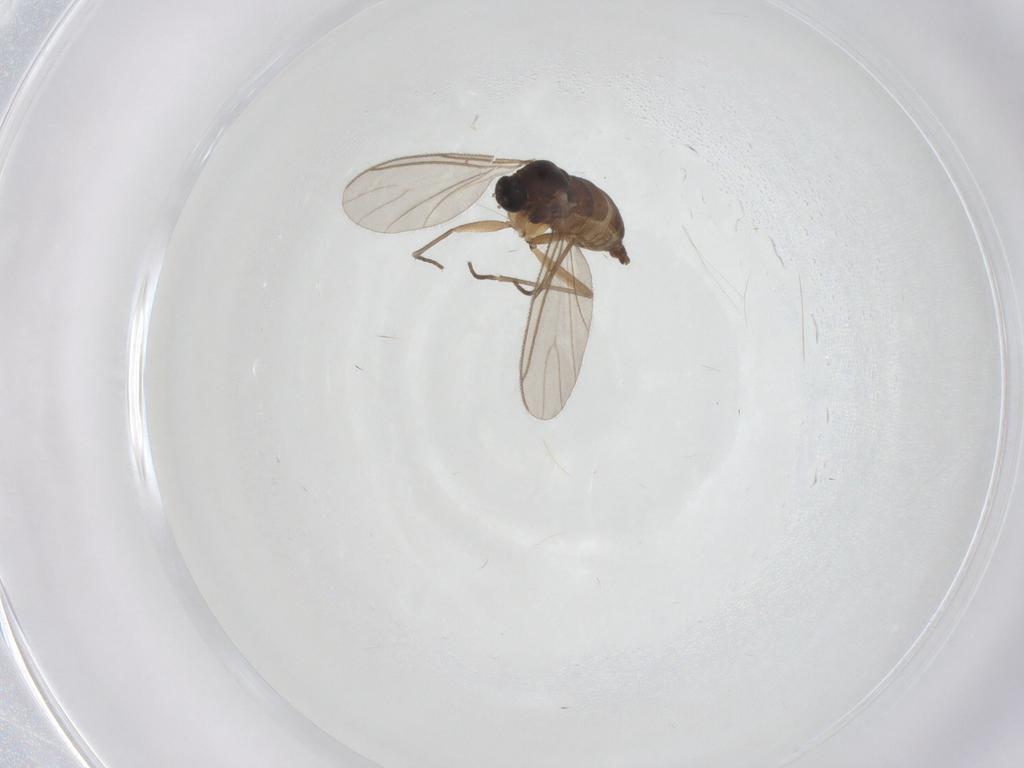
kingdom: Animalia
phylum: Arthropoda
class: Insecta
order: Diptera
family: Sciaridae
